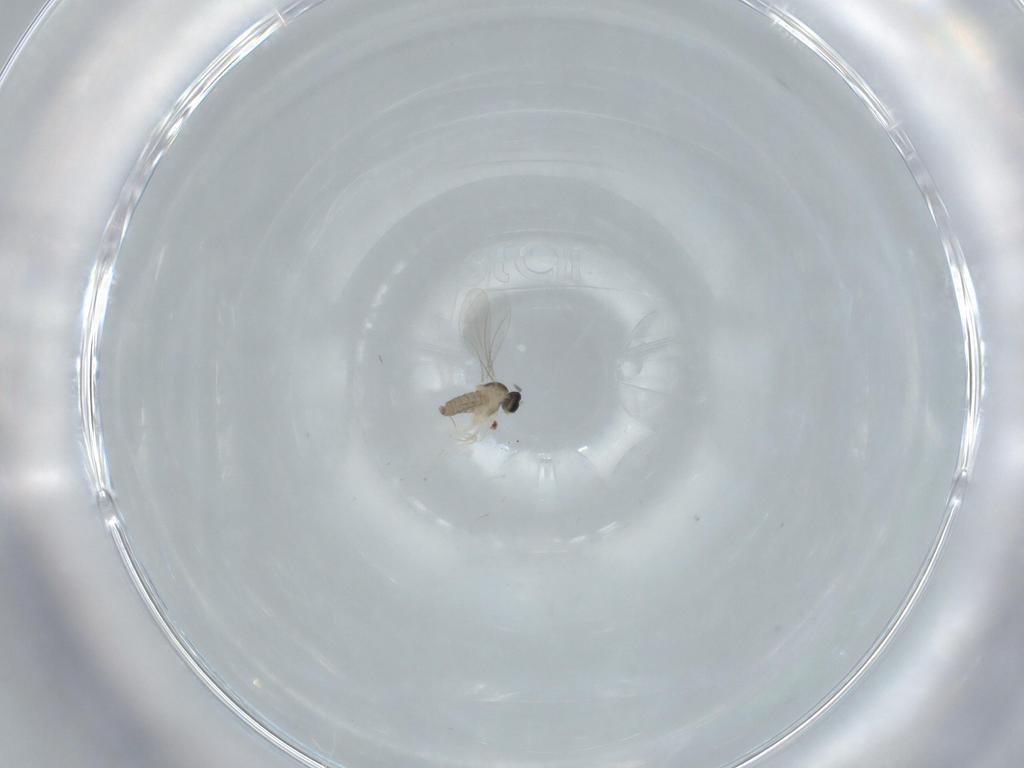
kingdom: Animalia
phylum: Arthropoda
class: Insecta
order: Diptera
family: Cecidomyiidae
